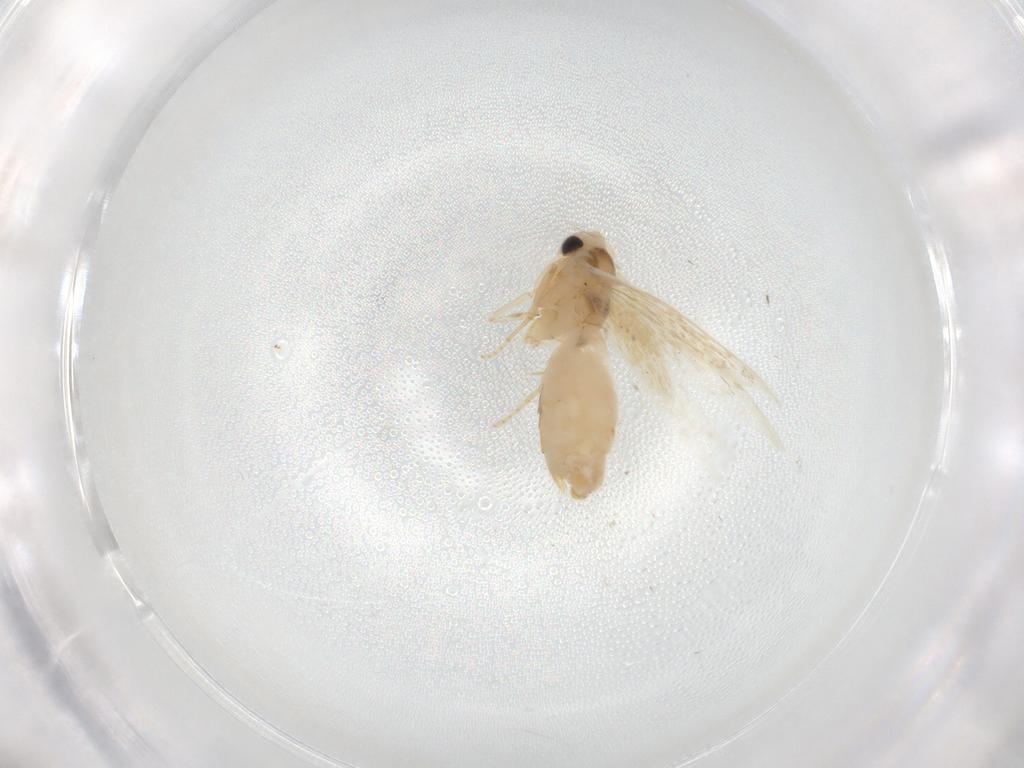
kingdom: Animalia
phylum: Arthropoda
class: Insecta
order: Lepidoptera
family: Bucculatricidae
